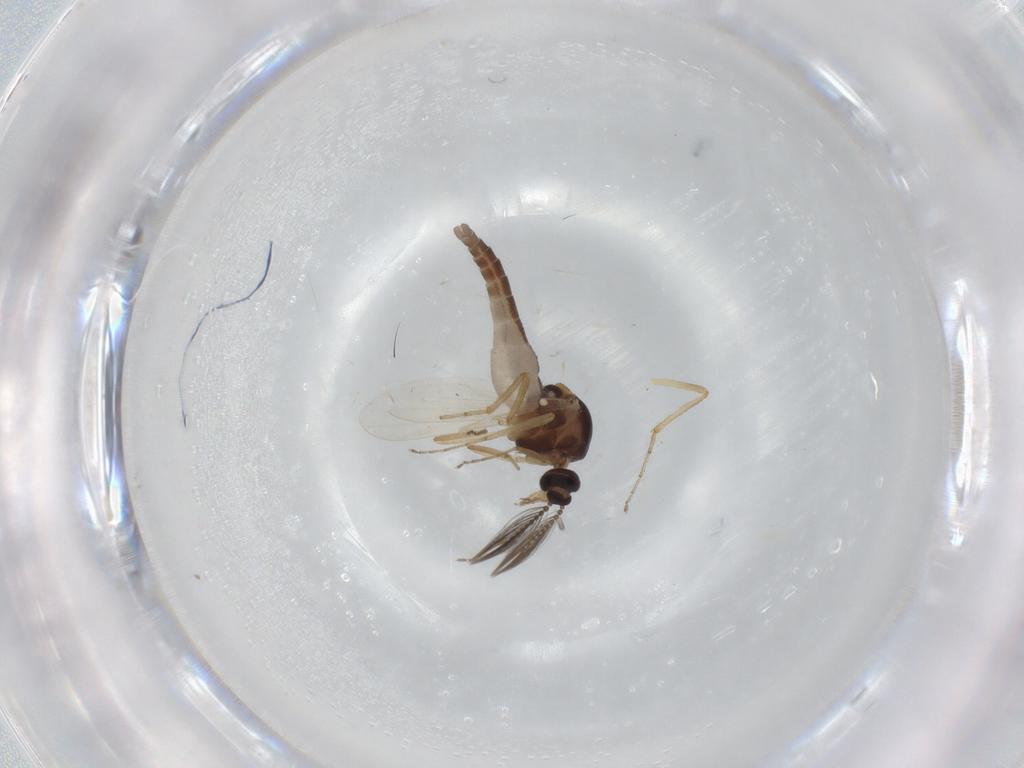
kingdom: Animalia
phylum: Arthropoda
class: Insecta
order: Diptera
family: Ceratopogonidae
